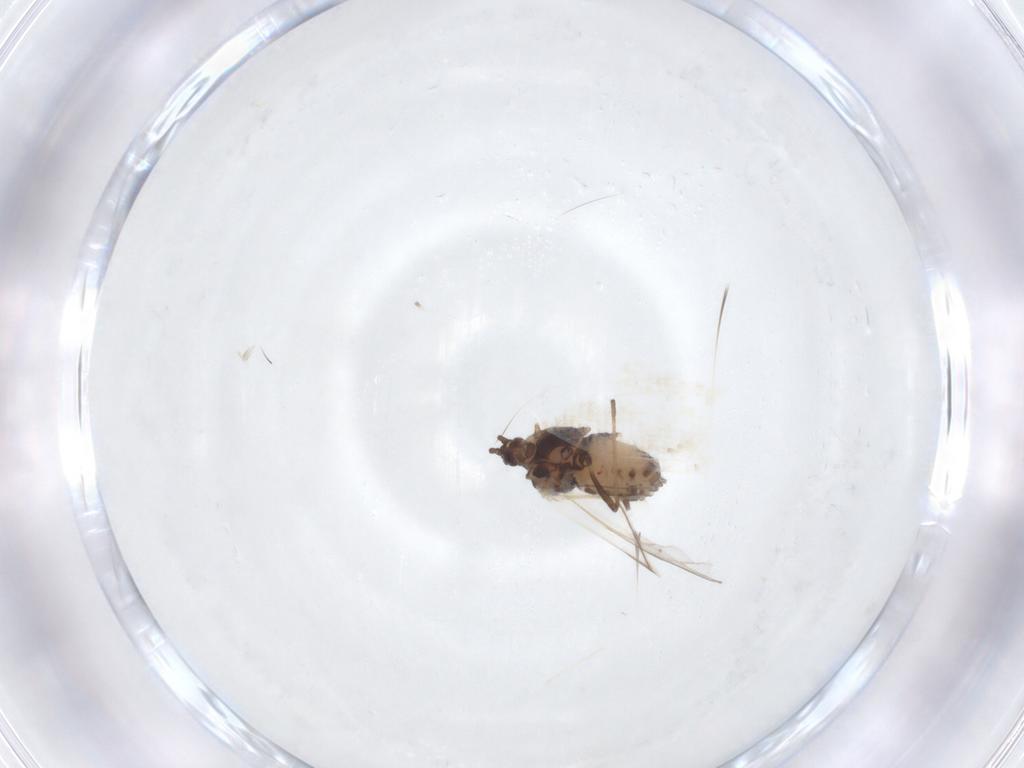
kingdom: Animalia
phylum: Arthropoda
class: Insecta
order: Hemiptera
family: Aphididae
